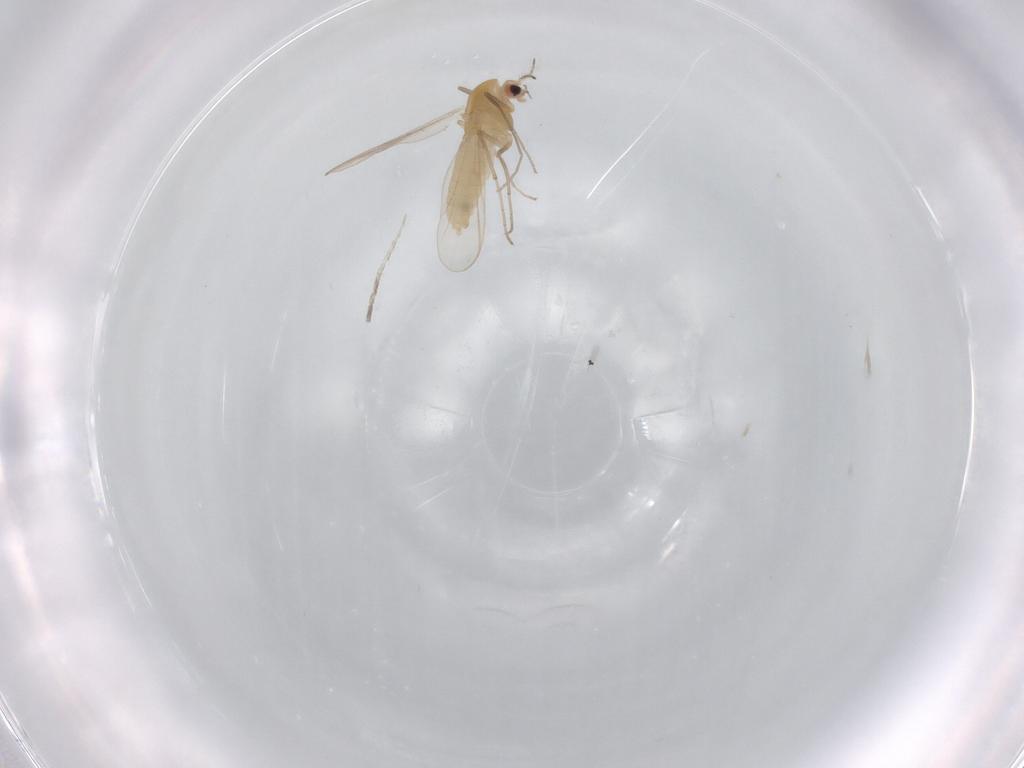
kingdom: Animalia
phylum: Arthropoda
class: Insecta
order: Diptera
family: Chironomidae
